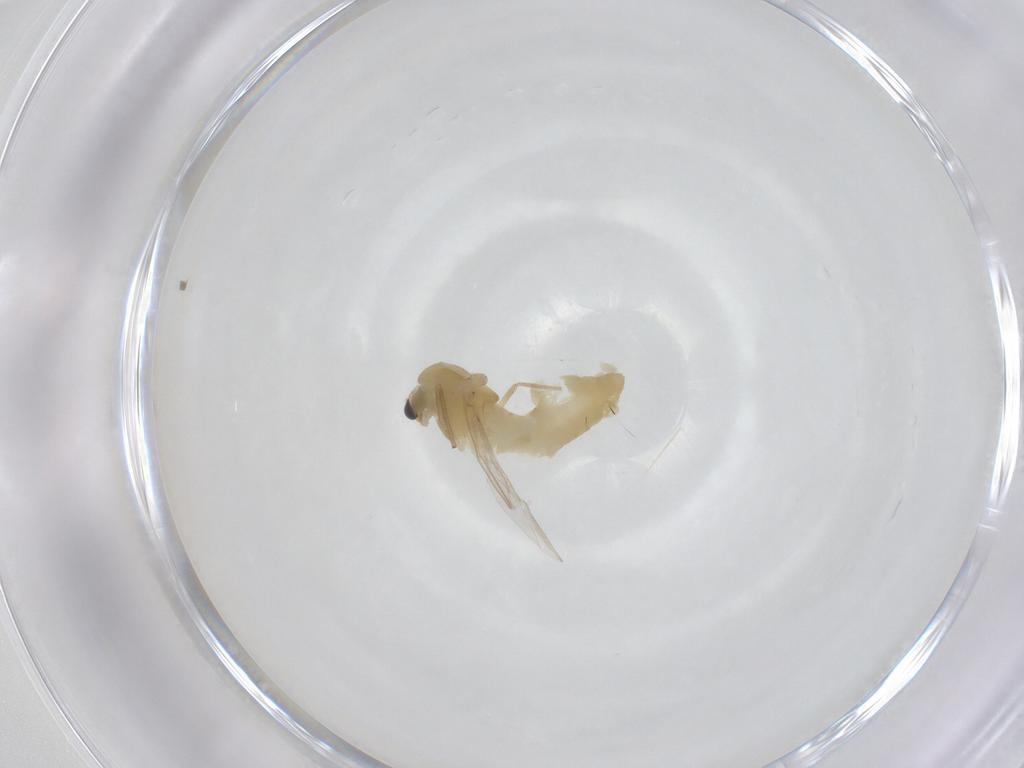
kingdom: Animalia
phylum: Arthropoda
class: Insecta
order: Diptera
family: Chironomidae
